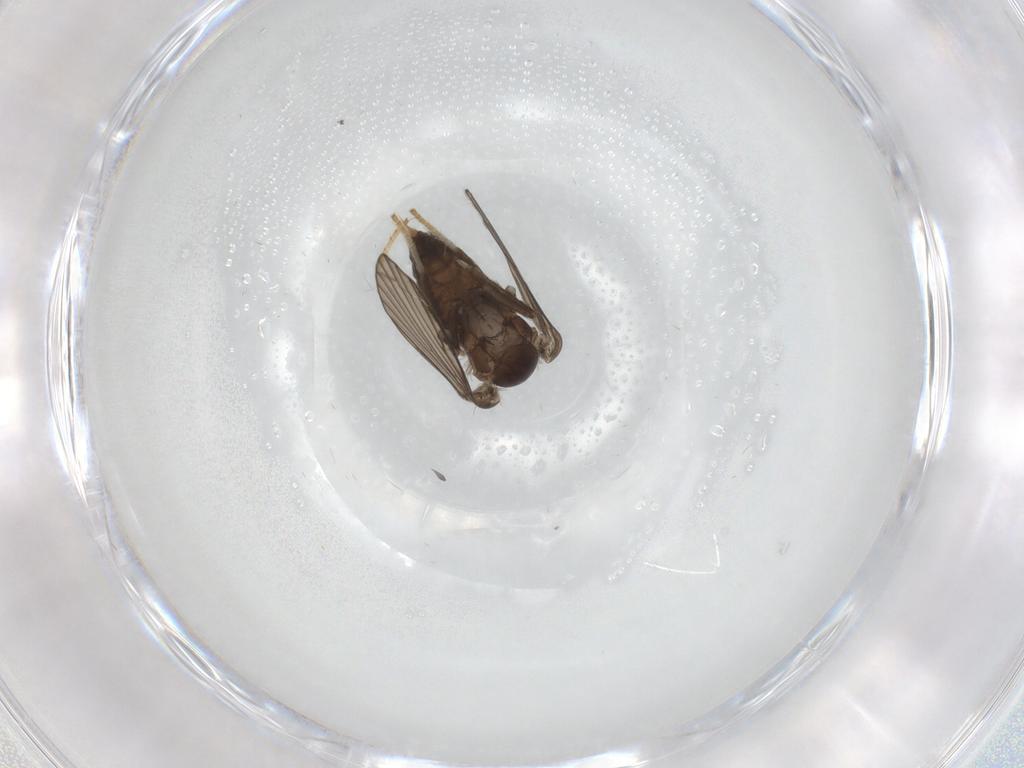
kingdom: Animalia
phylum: Arthropoda
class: Insecta
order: Diptera
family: Psychodidae
